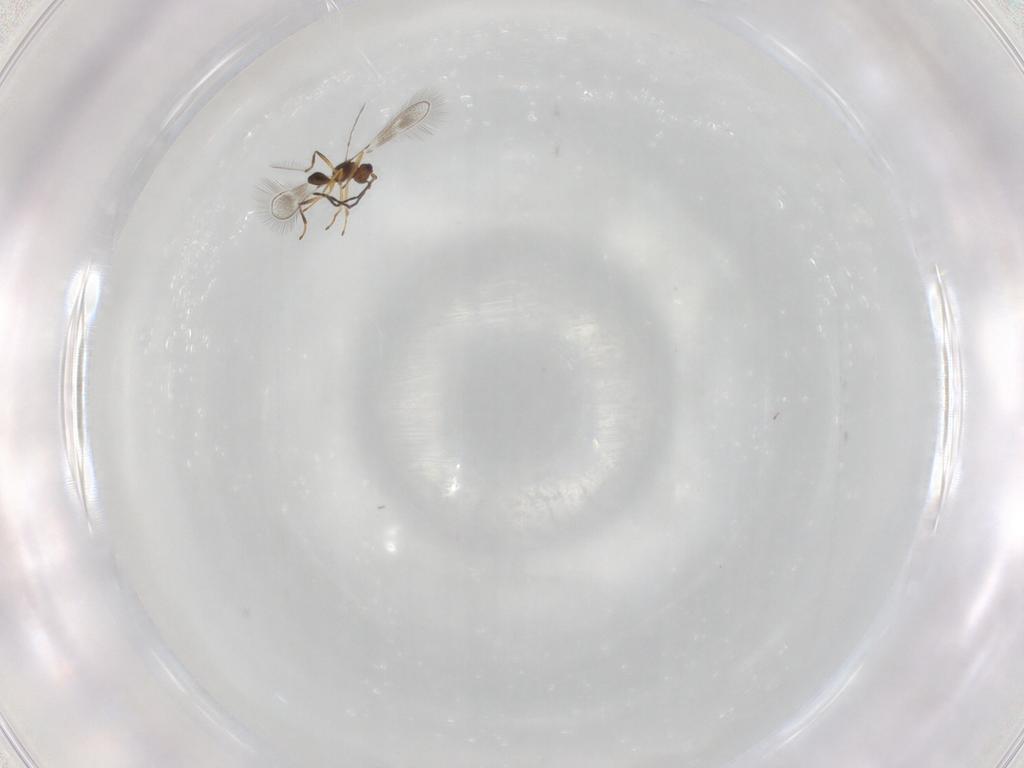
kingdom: Animalia
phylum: Arthropoda
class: Insecta
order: Hymenoptera
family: Mymaridae
